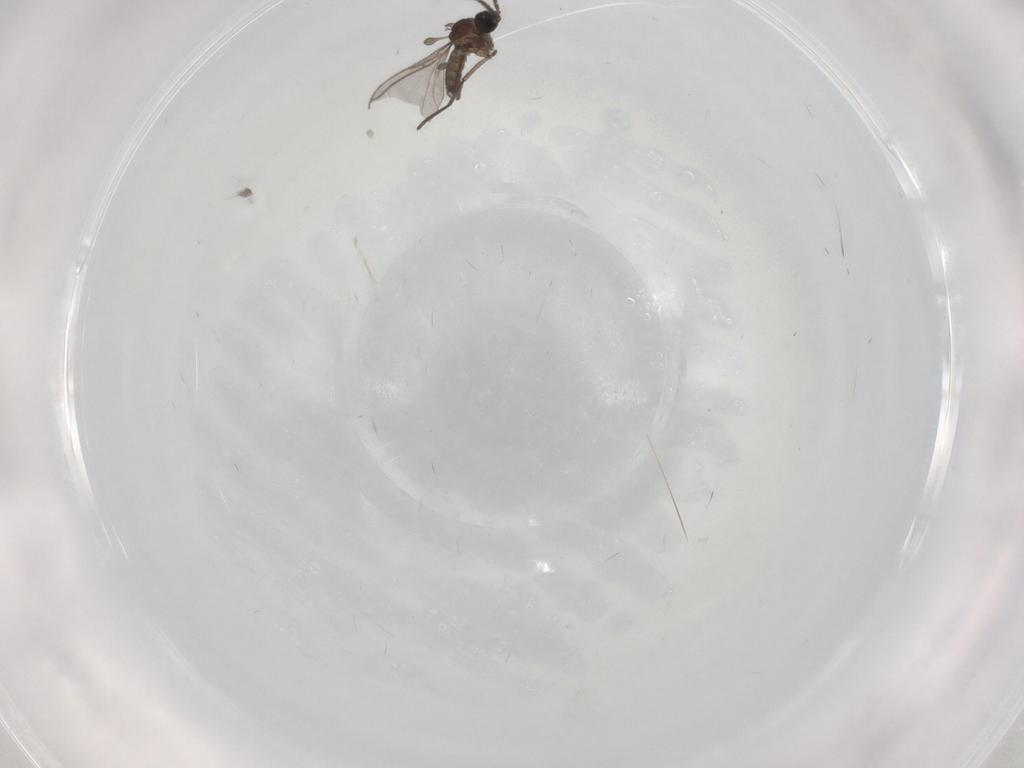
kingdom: Animalia
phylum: Arthropoda
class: Insecta
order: Diptera
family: Sciaridae
